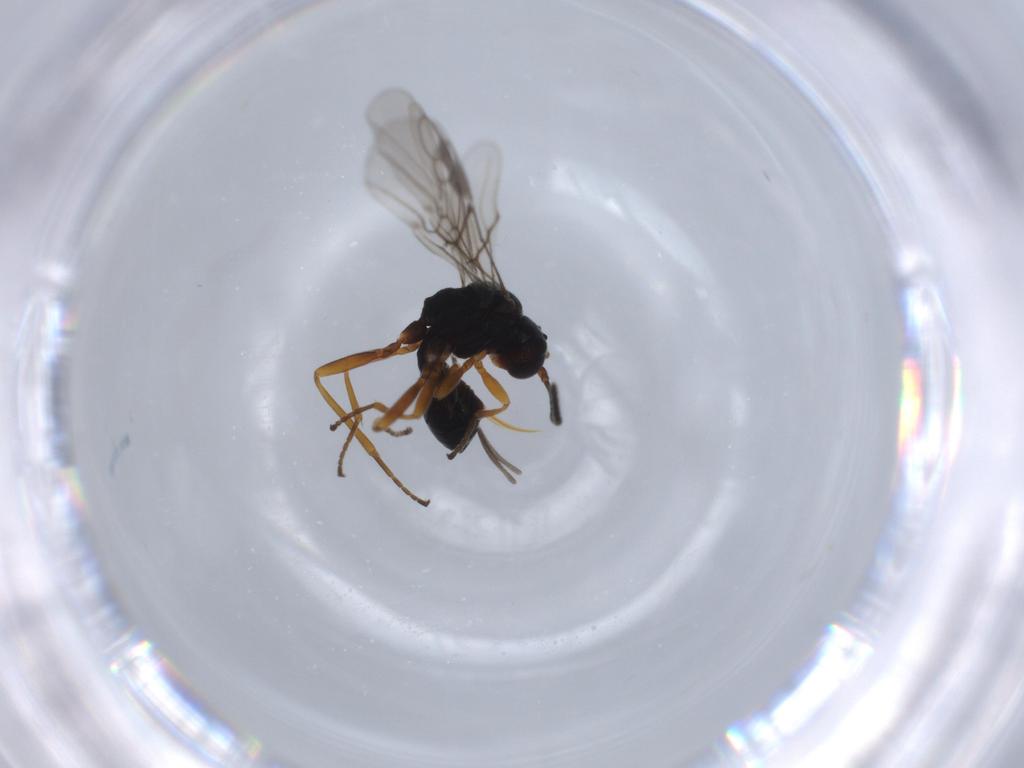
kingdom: Animalia
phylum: Arthropoda
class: Insecta
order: Hymenoptera
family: Braconidae
